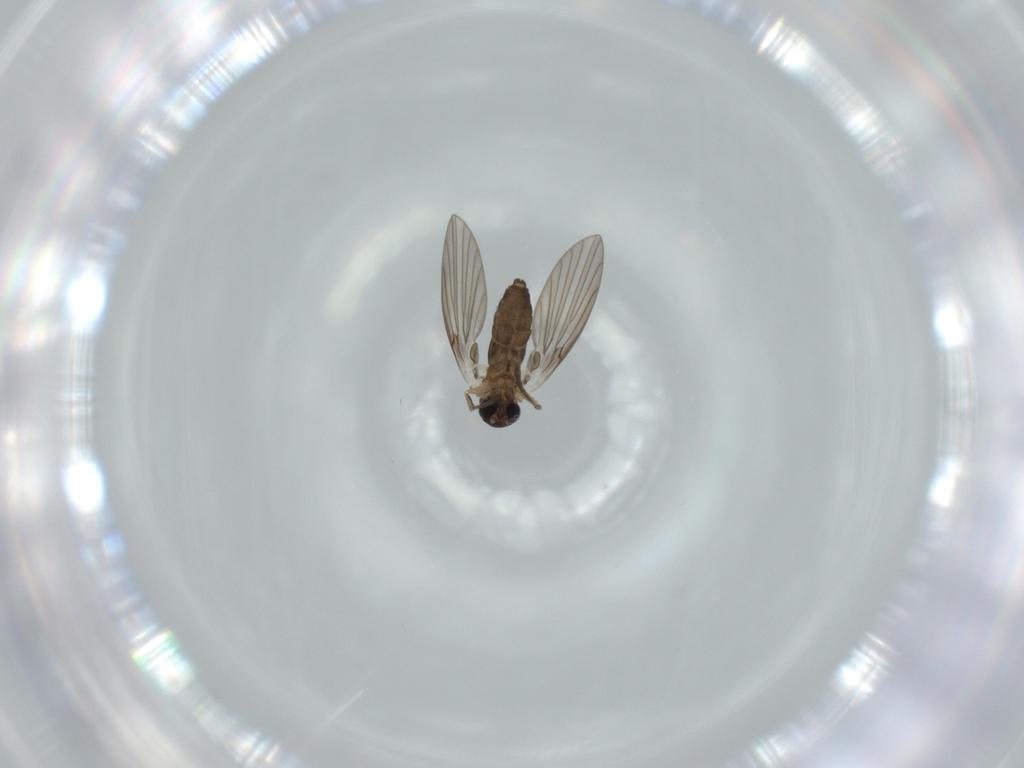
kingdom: Animalia
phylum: Arthropoda
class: Insecta
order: Diptera
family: Psychodidae
